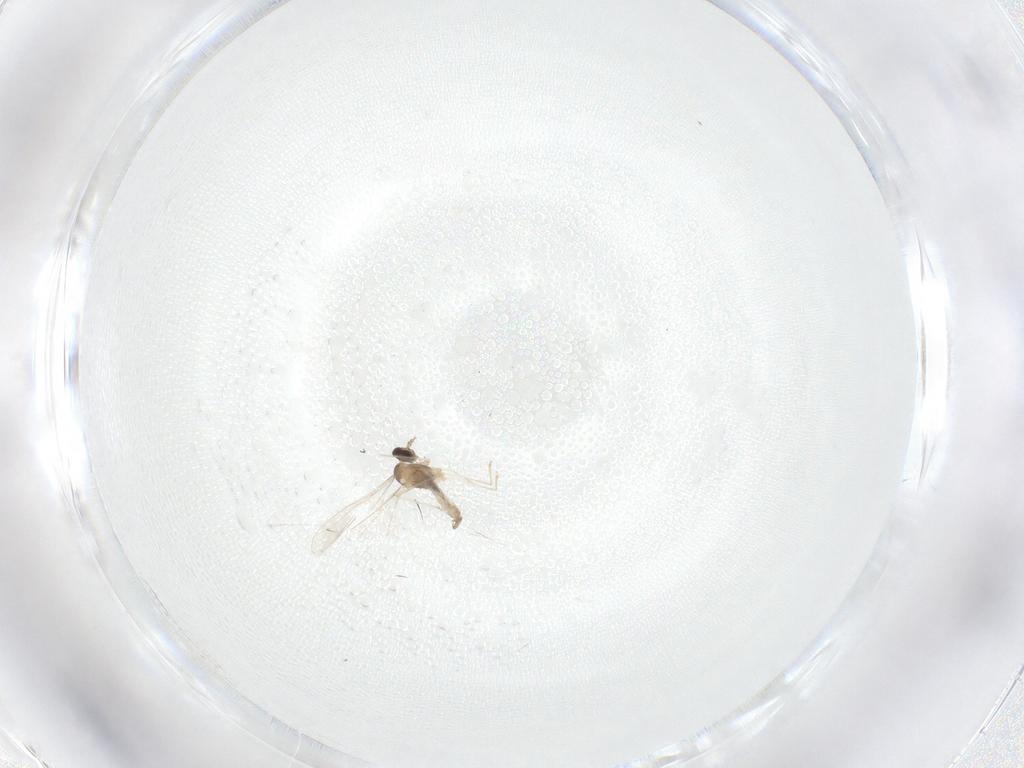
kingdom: Animalia
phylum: Arthropoda
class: Insecta
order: Diptera
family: Cecidomyiidae
